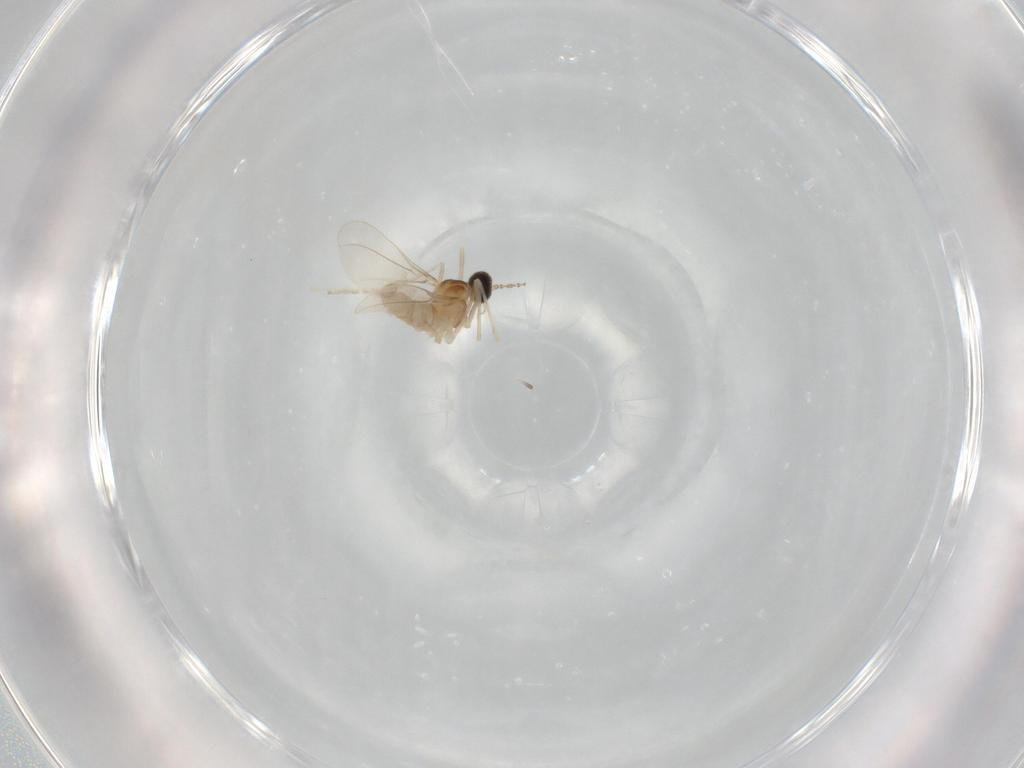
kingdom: Animalia
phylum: Arthropoda
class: Insecta
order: Diptera
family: Cecidomyiidae
